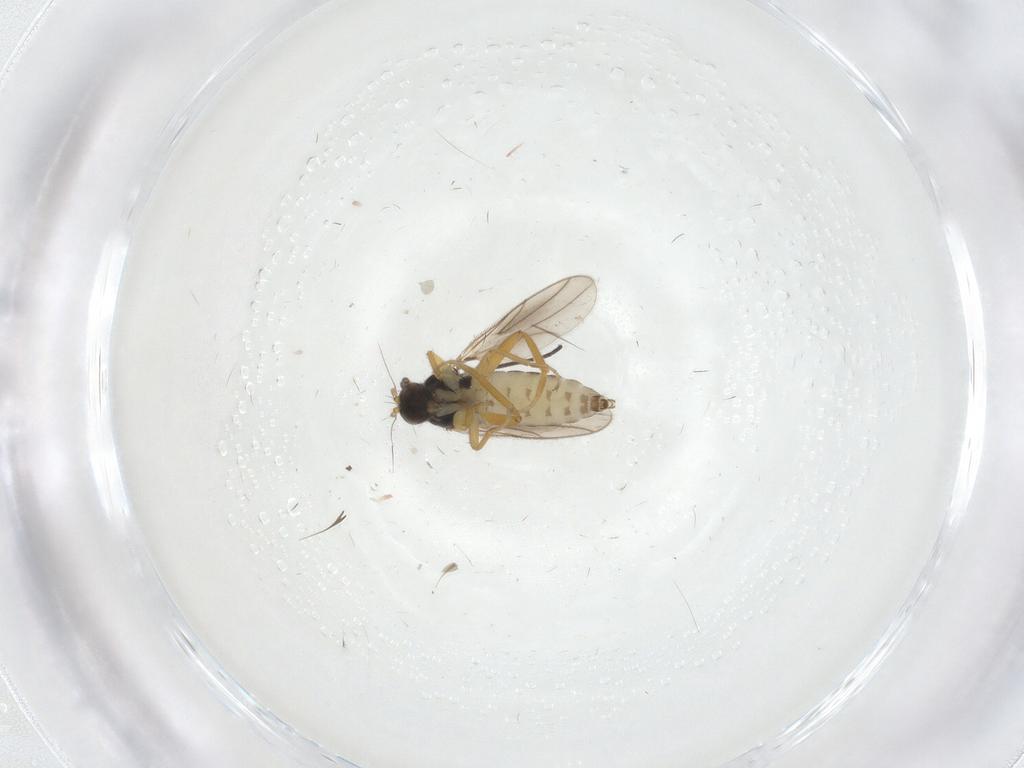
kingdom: Animalia
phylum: Arthropoda
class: Insecta
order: Diptera
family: Hybotidae
